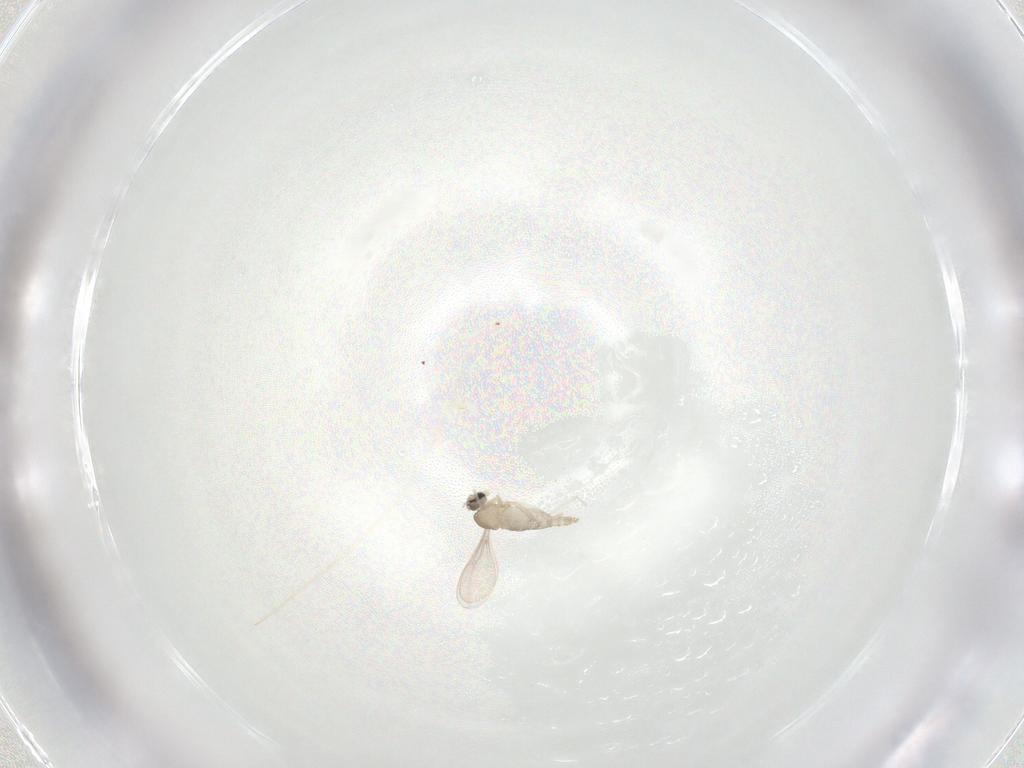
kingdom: Animalia
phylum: Arthropoda
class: Insecta
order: Diptera
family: Cecidomyiidae
